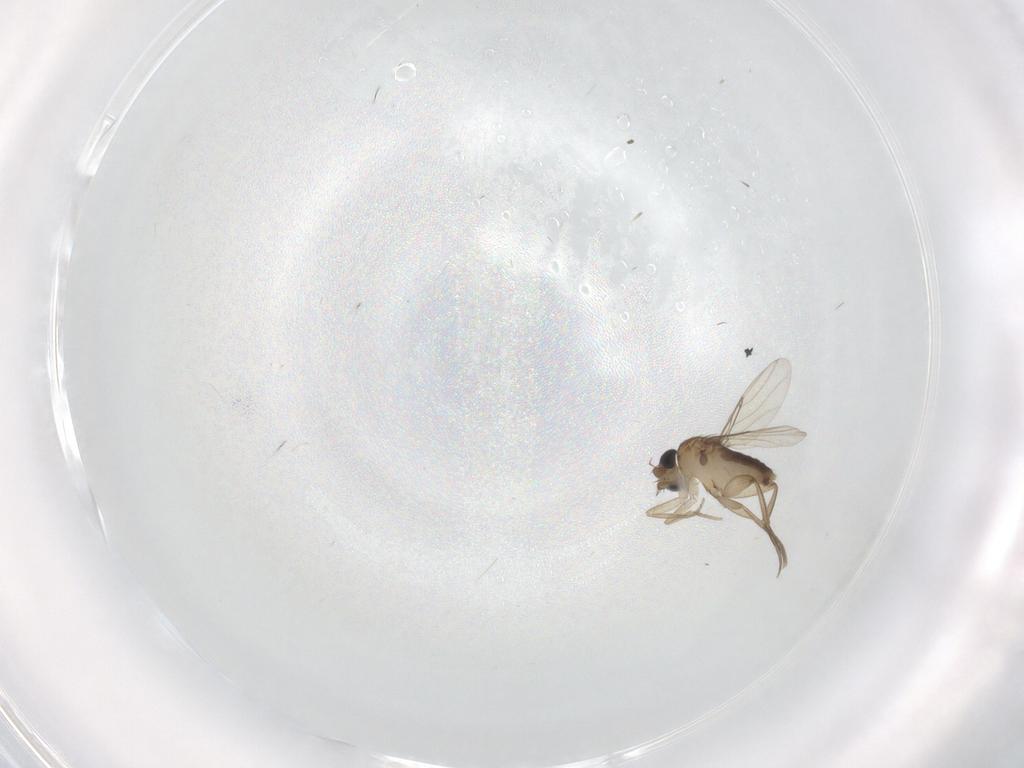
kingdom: Animalia
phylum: Arthropoda
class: Insecta
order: Diptera
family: Phoridae
